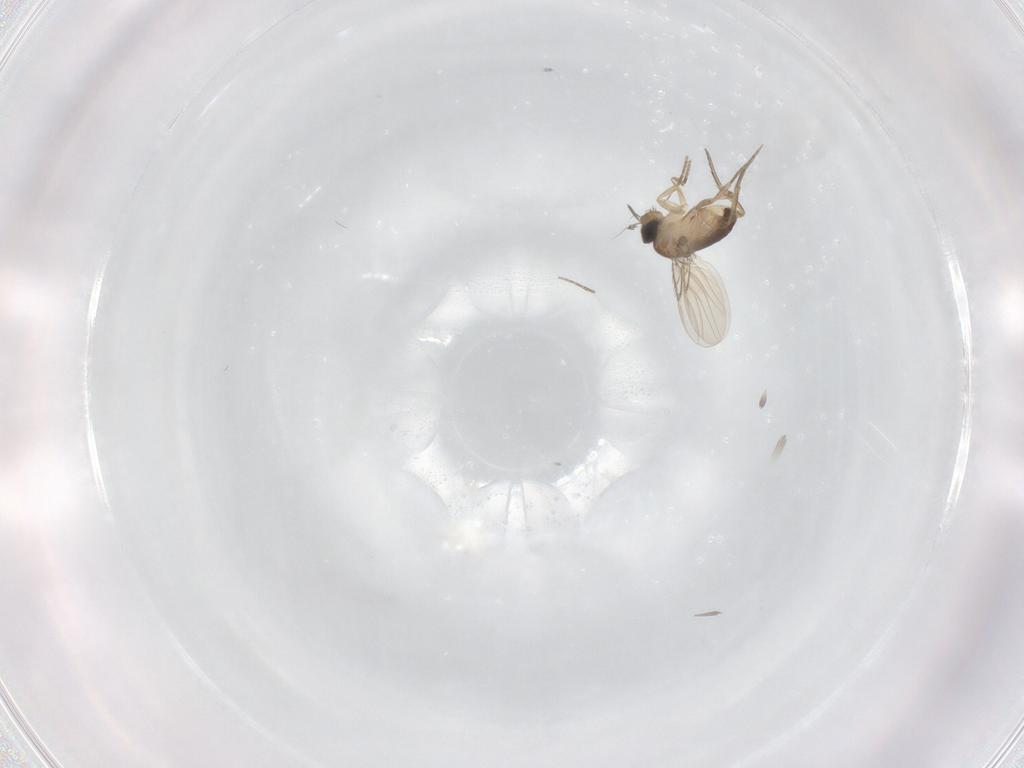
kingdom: Animalia
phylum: Arthropoda
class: Insecta
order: Diptera
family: Phoridae
